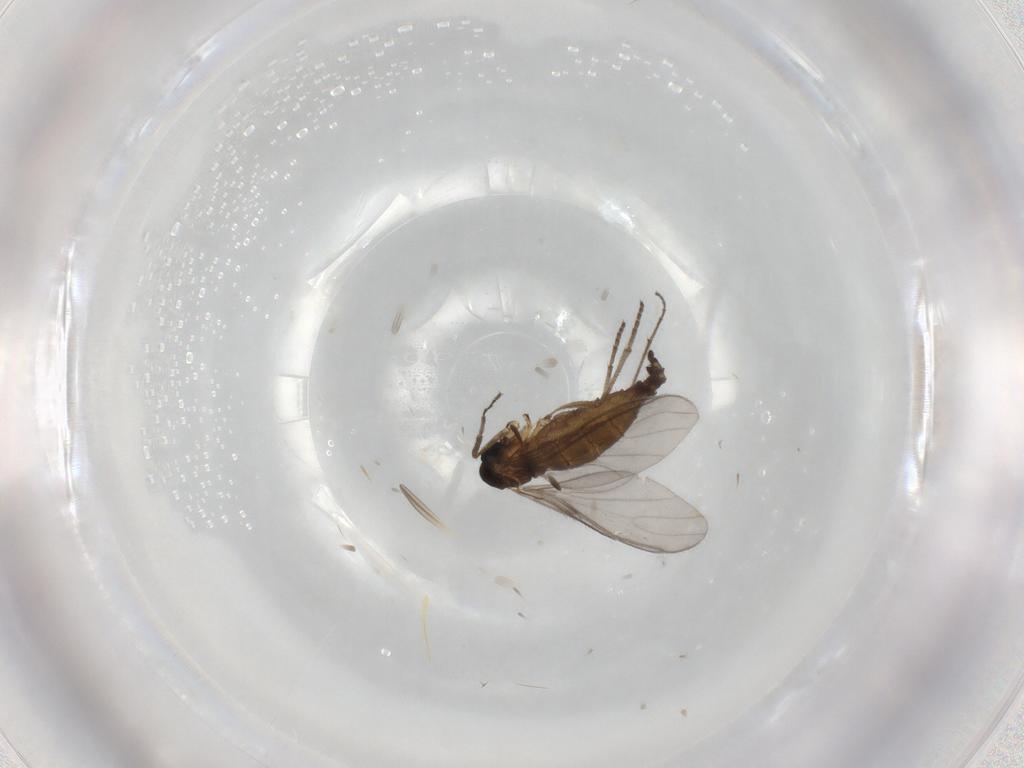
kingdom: Animalia
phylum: Arthropoda
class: Insecta
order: Diptera
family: Sciaridae
